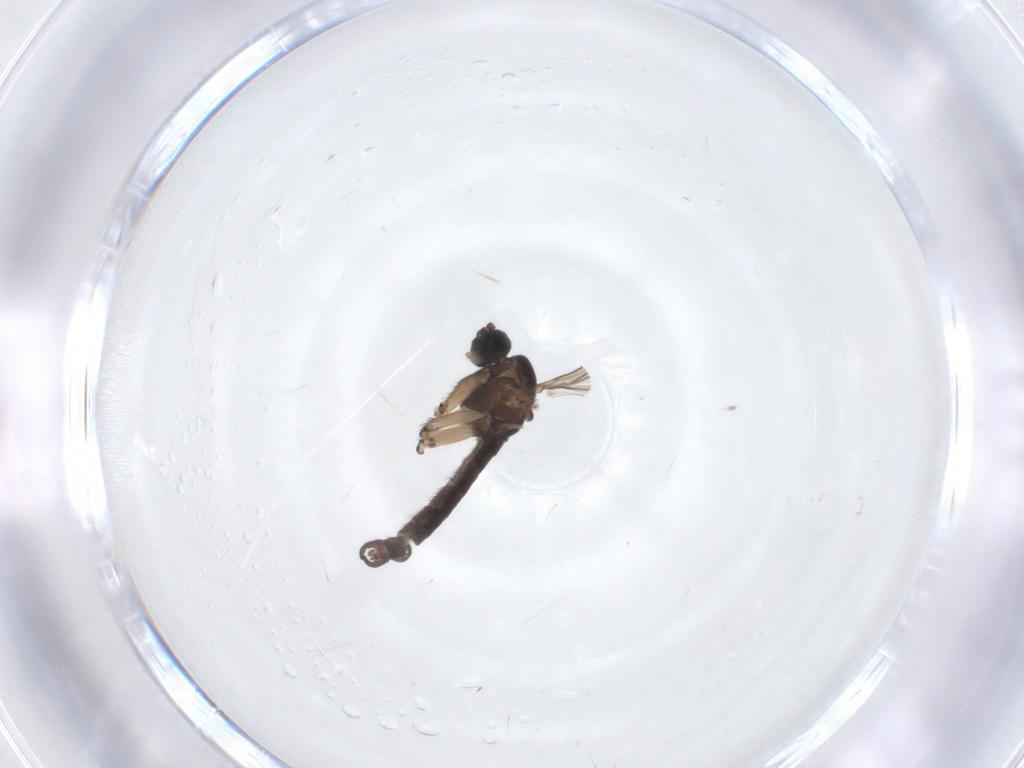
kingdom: Animalia
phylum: Arthropoda
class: Insecta
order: Diptera
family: Sciaridae
